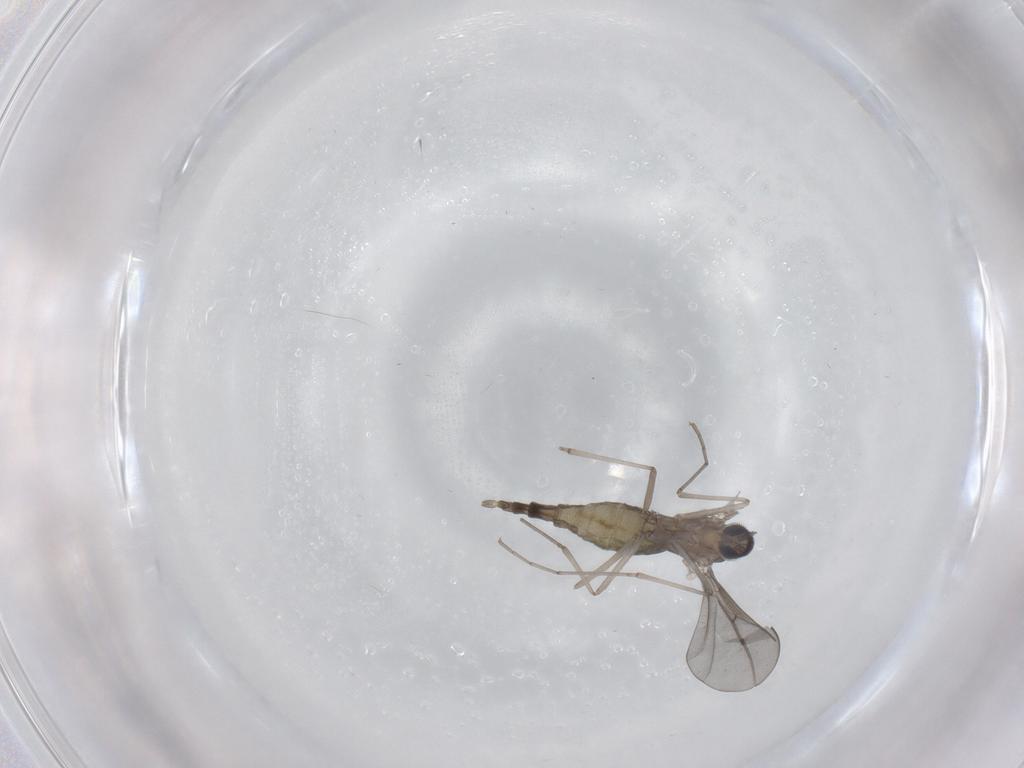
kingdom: Animalia
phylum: Arthropoda
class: Insecta
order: Diptera
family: Cecidomyiidae
